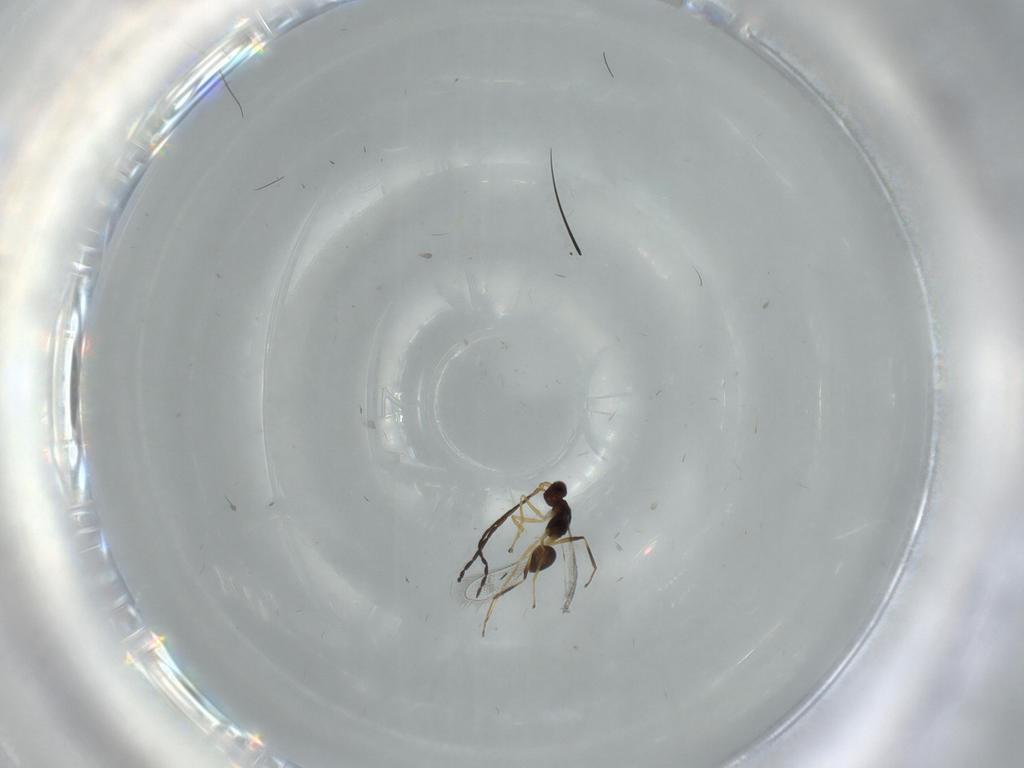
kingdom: Animalia
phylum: Arthropoda
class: Insecta
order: Hymenoptera
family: Mymaridae
